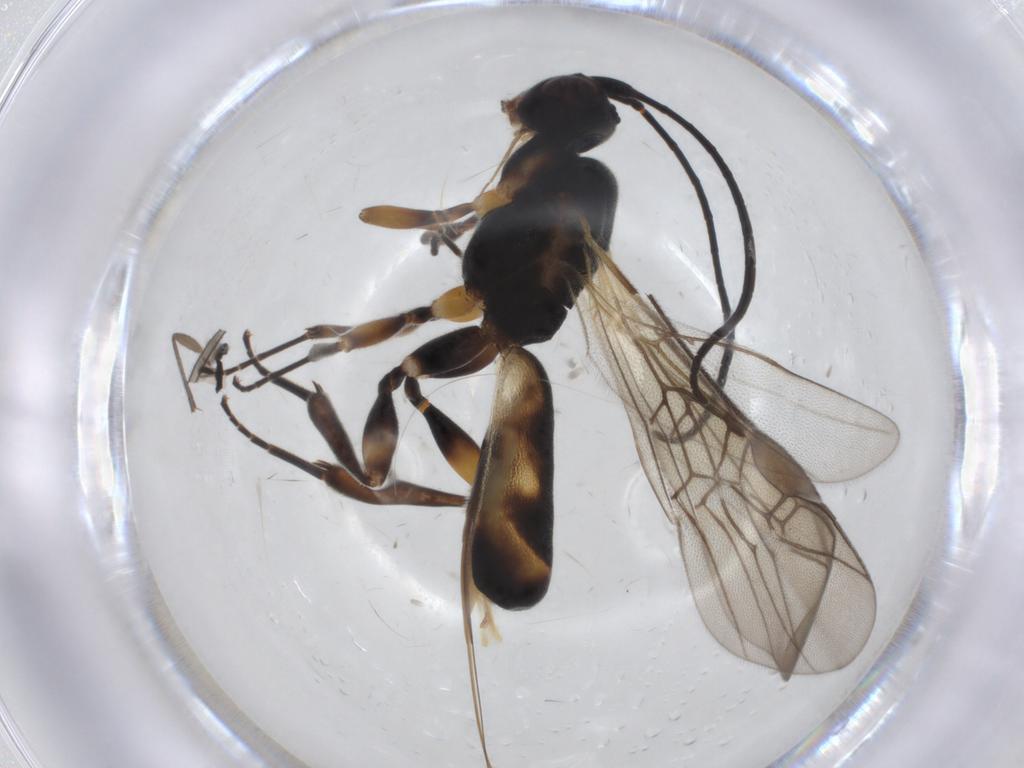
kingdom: Animalia
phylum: Arthropoda
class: Insecta
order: Hymenoptera
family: Braconidae
